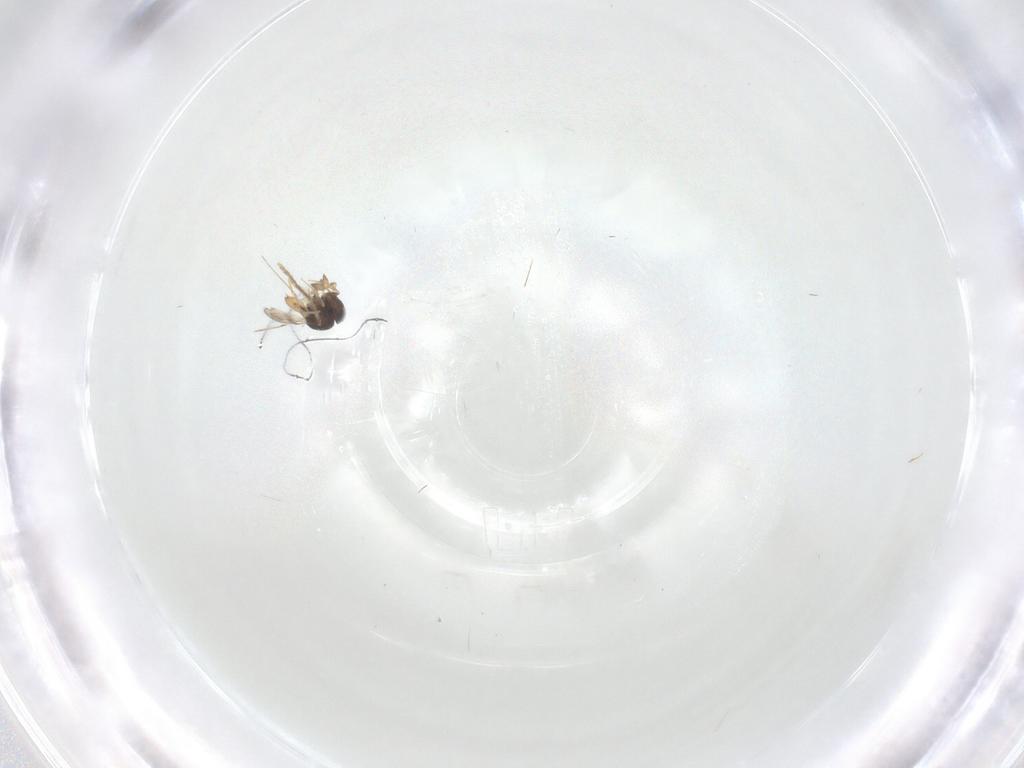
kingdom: Animalia
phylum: Arthropoda
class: Insecta
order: Hymenoptera
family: Scelionidae
